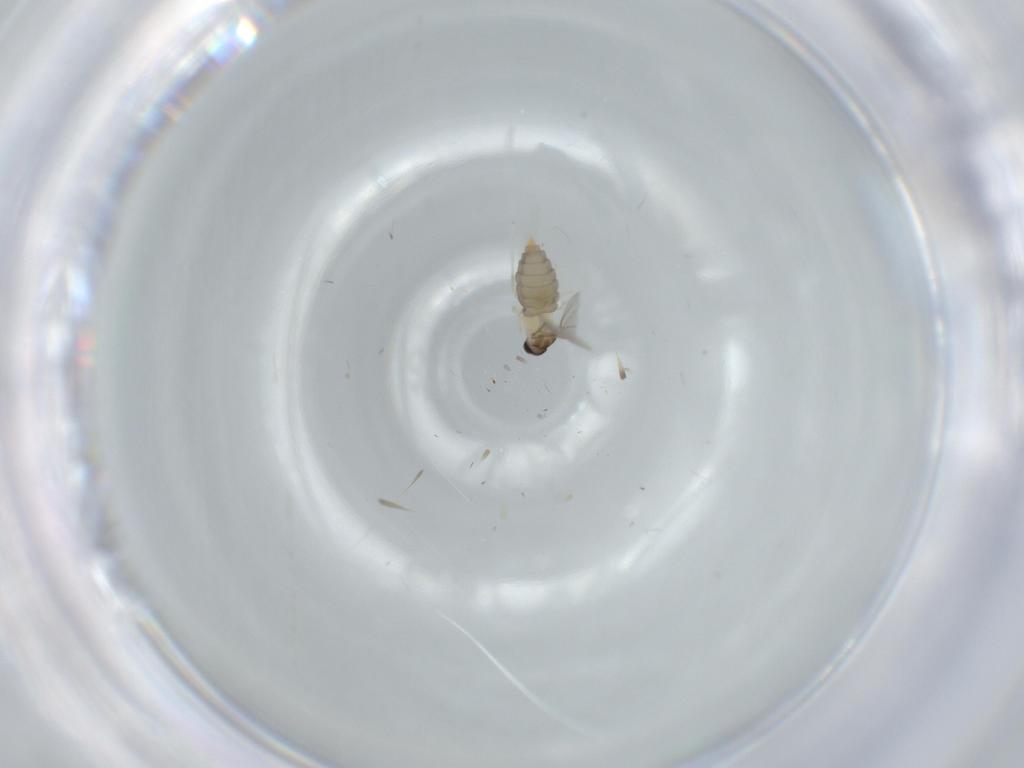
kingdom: Animalia
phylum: Arthropoda
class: Insecta
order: Diptera
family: Phoridae
